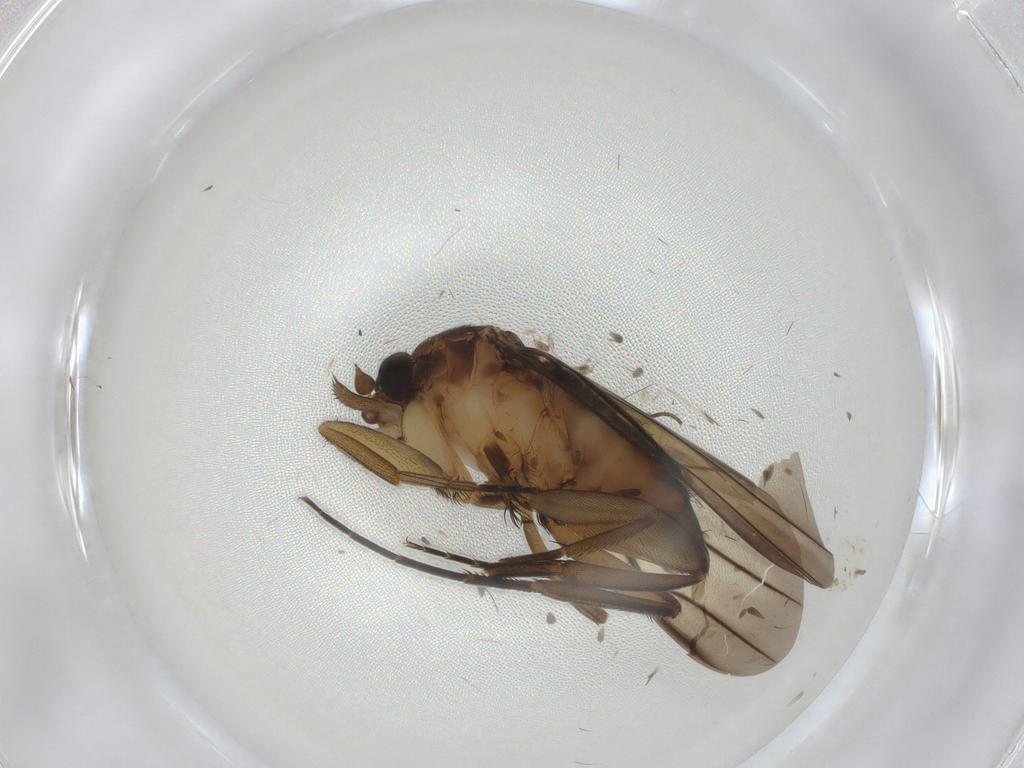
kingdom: Animalia
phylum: Arthropoda
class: Insecta
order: Diptera
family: Phoridae
